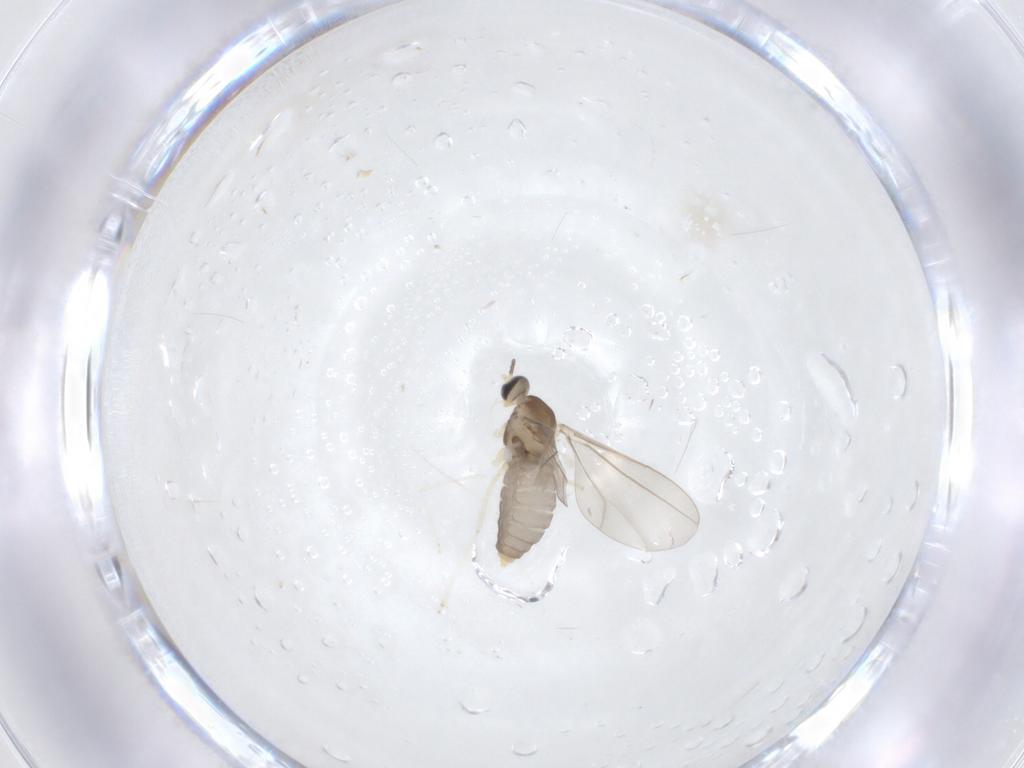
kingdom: Animalia
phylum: Arthropoda
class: Insecta
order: Diptera
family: Cecidomyiidae
